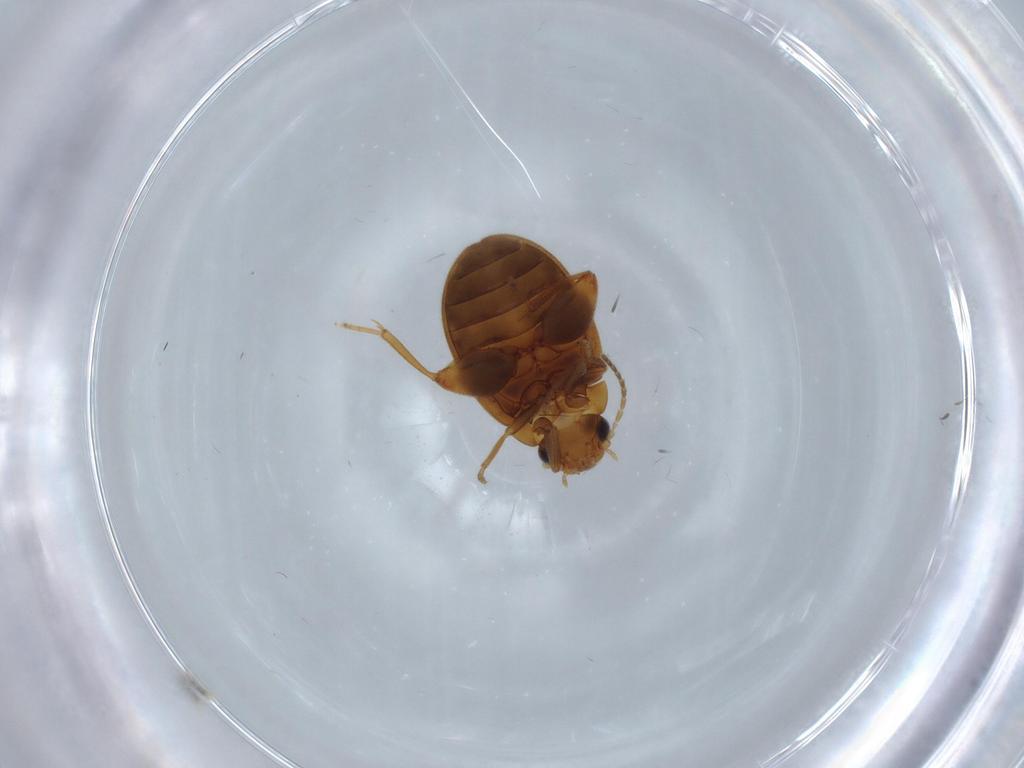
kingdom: Animalia
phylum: Arthropoda
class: Insecta
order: Coleoptera
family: Scirtidae
